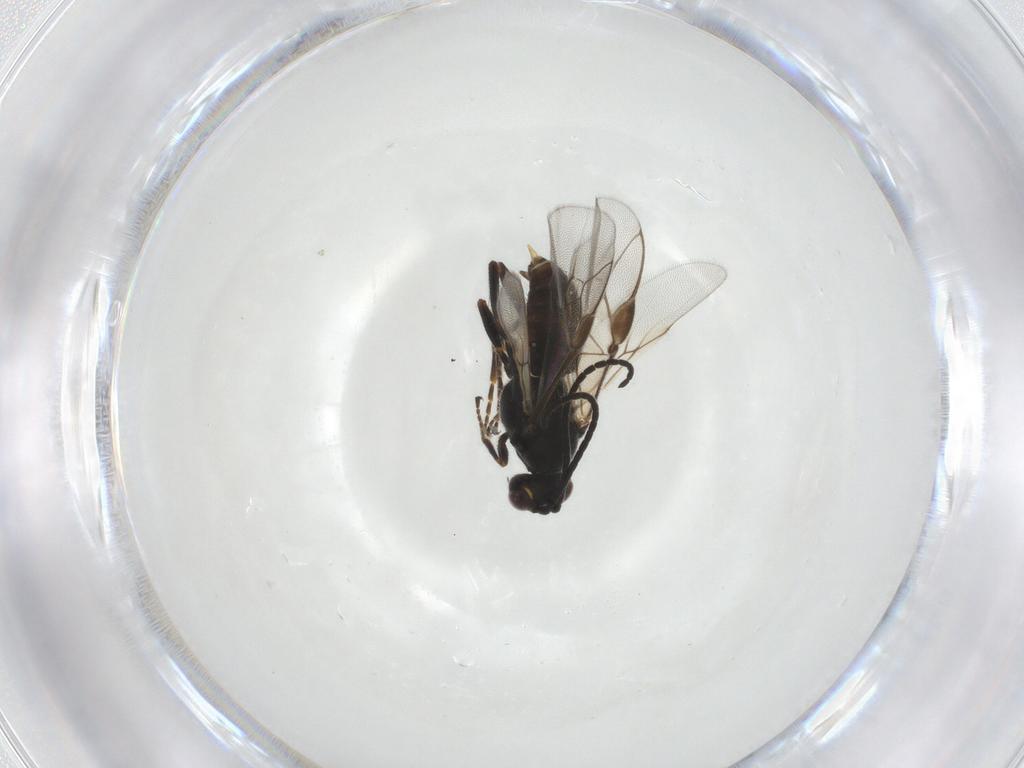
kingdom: Animalia
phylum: Arthropoda
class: Insecta
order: Hymenoptera
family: Braconidae
